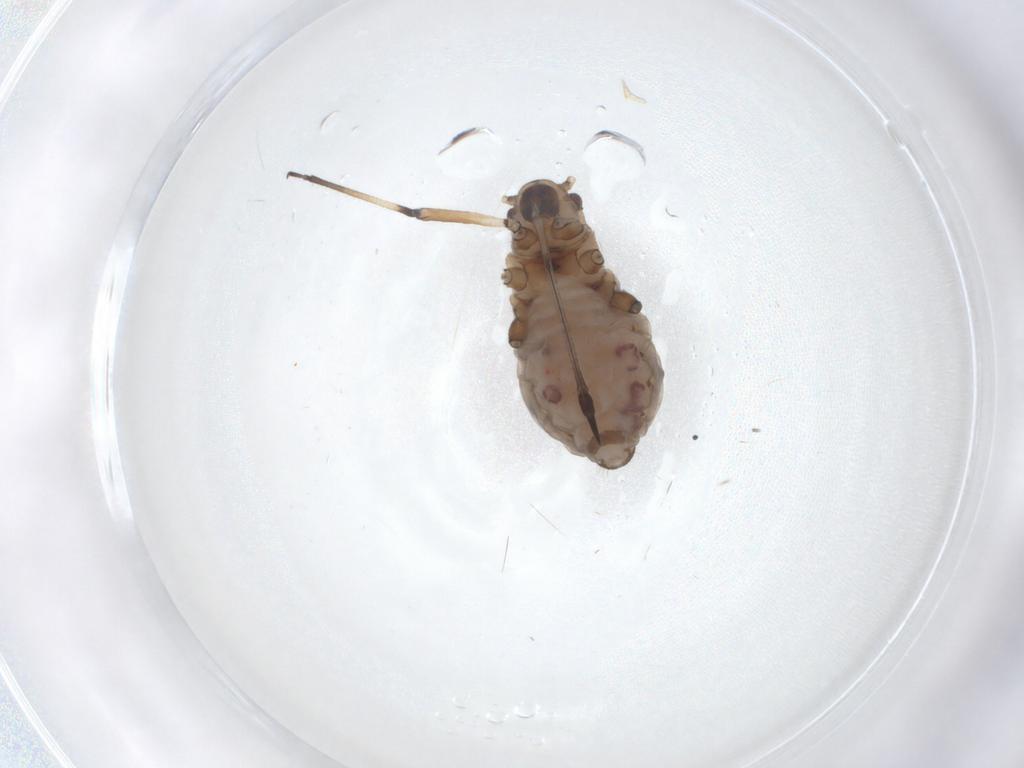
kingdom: Animalia
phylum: Arthropoda
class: Insecta
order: Hemiptera
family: Aphididae
